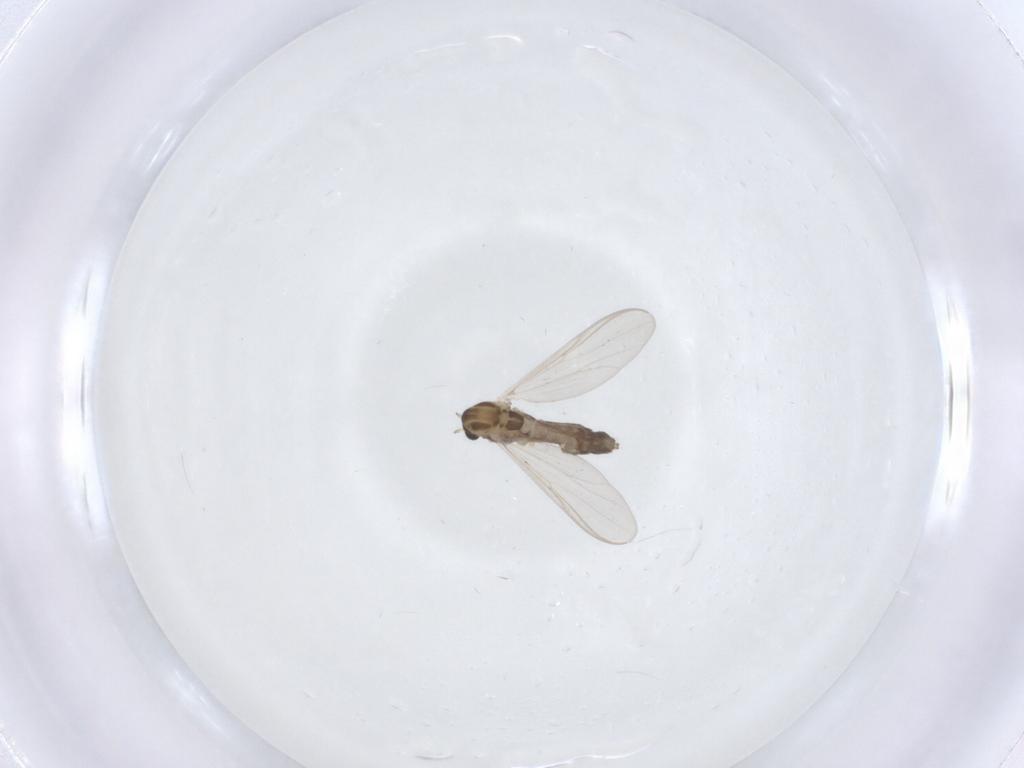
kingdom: Animalia
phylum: Arthropoda
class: Insecta
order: Diptera
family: Chironomidae
